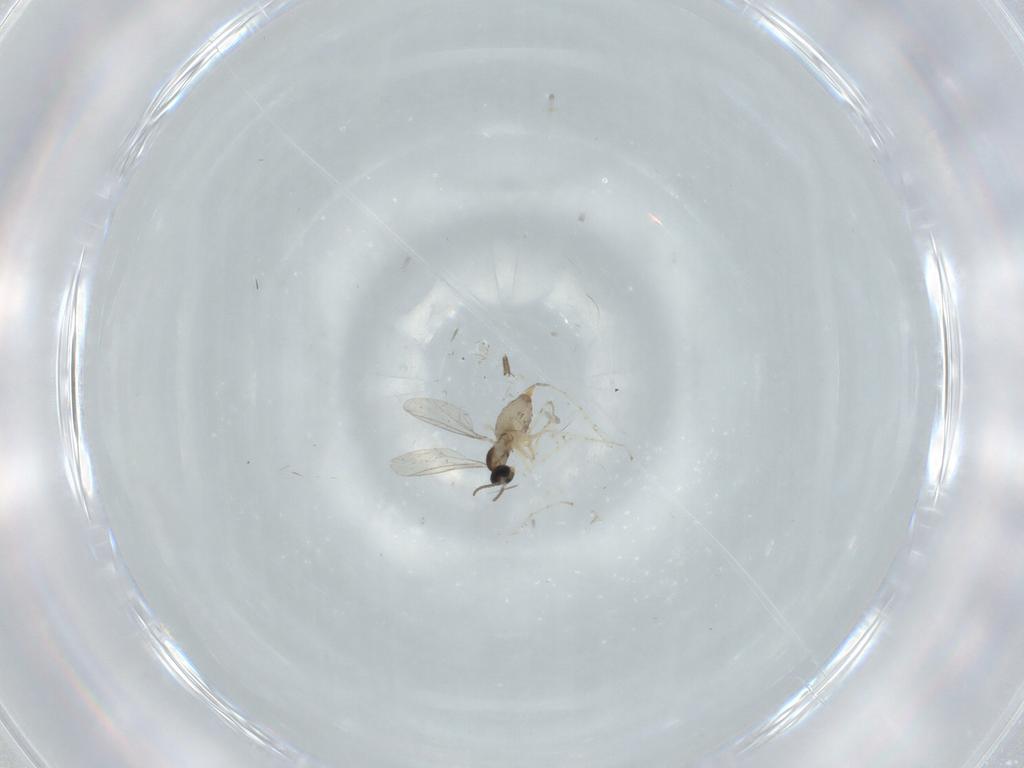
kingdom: Animalia
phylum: Arthropoda
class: Insecta
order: Diptera
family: Cecidomyiidae
